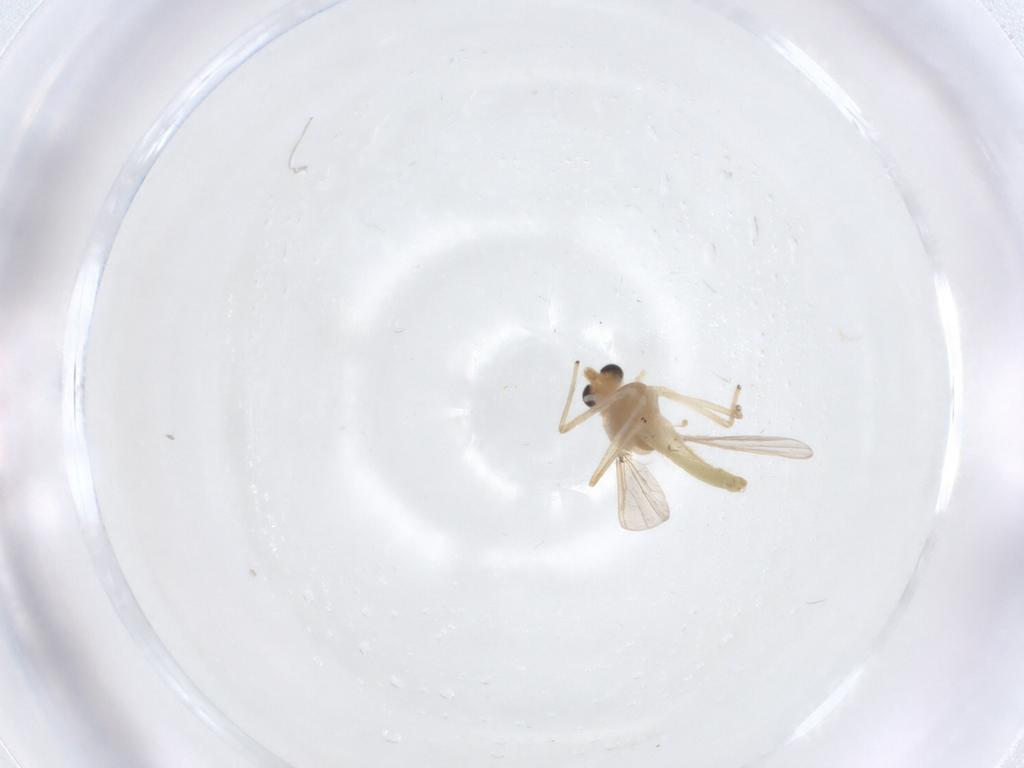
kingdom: Animalia
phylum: Arthropoda
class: Insecta
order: Diptera
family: Chironomidae
